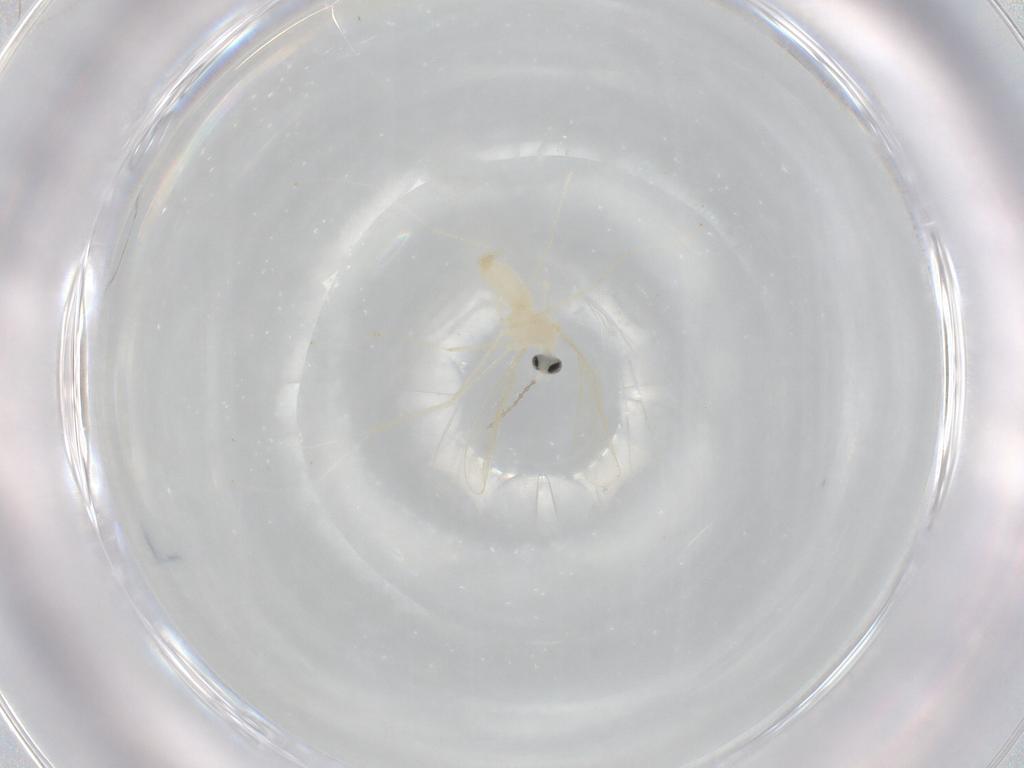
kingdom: Animalia
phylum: Arthropoda
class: Insecta
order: Diptera
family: Cecidomyiidae
